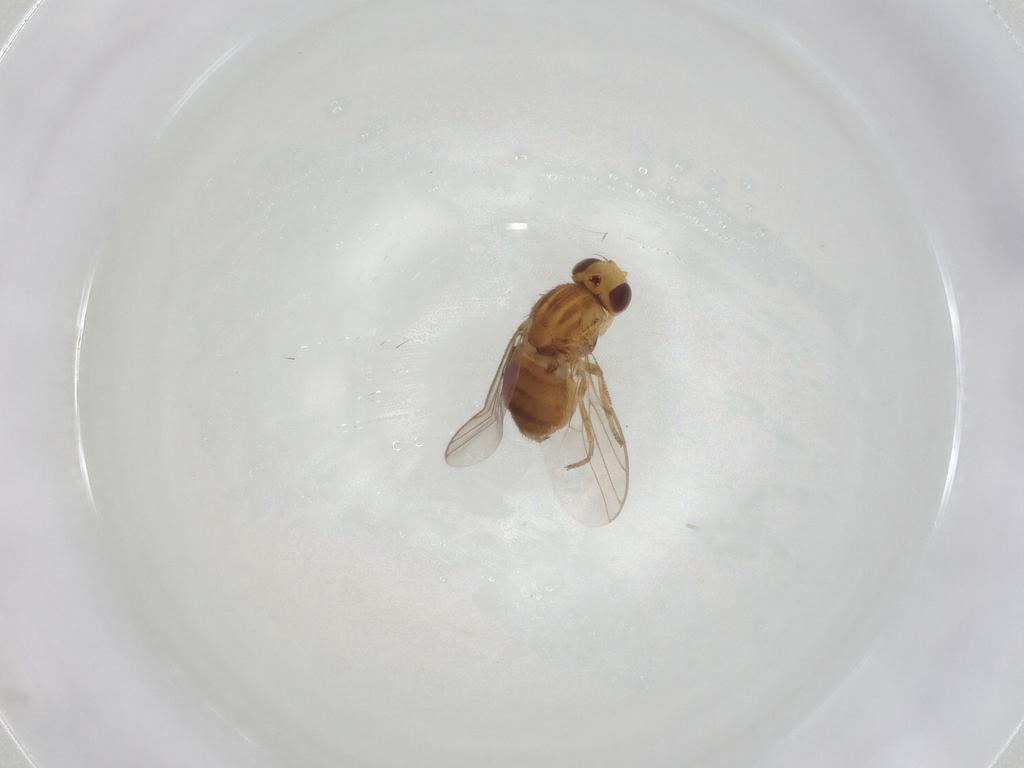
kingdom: Animalia
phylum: Arthropoda
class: Insecta
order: Diptera
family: Chloropidae
